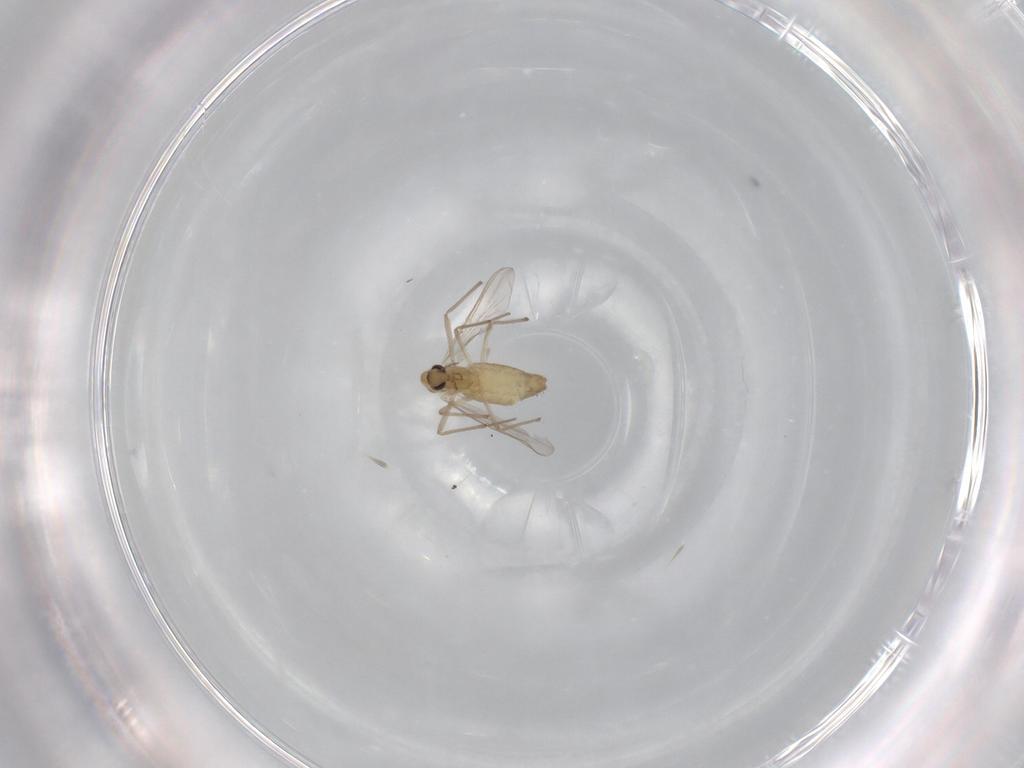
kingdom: Animalia
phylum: Arthropoda
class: Insecta
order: Diptera
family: Chironomidae
